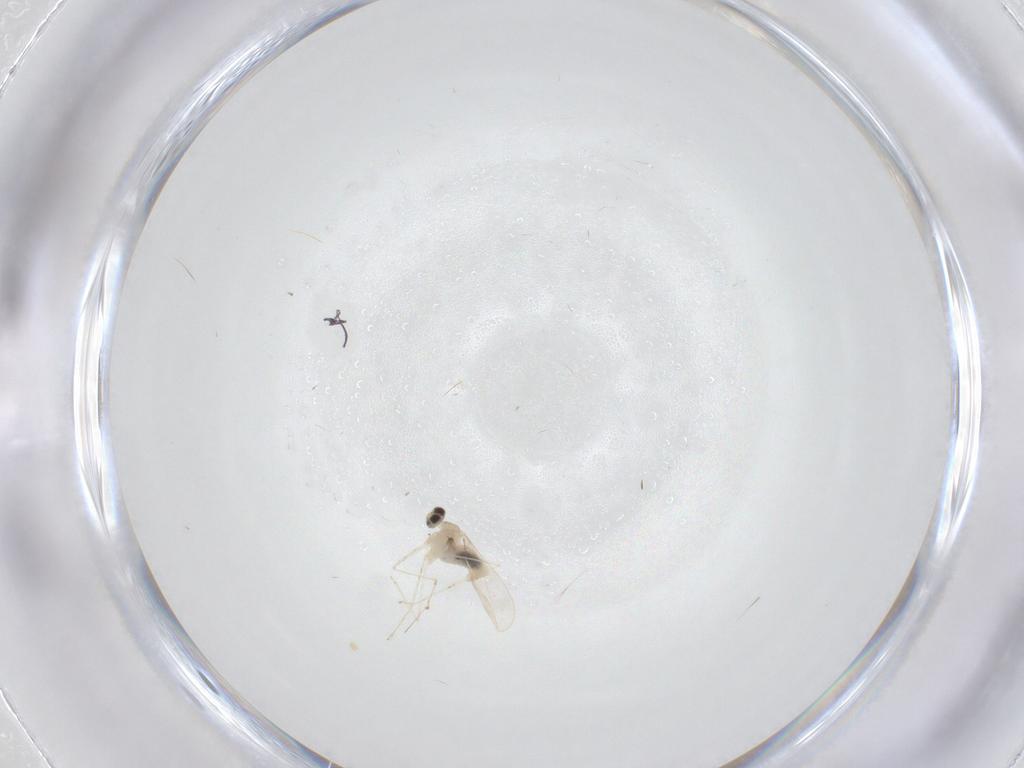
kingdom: Animalia
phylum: Arthropoda
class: Insecta
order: Diptera
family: Cecidomyiidae
